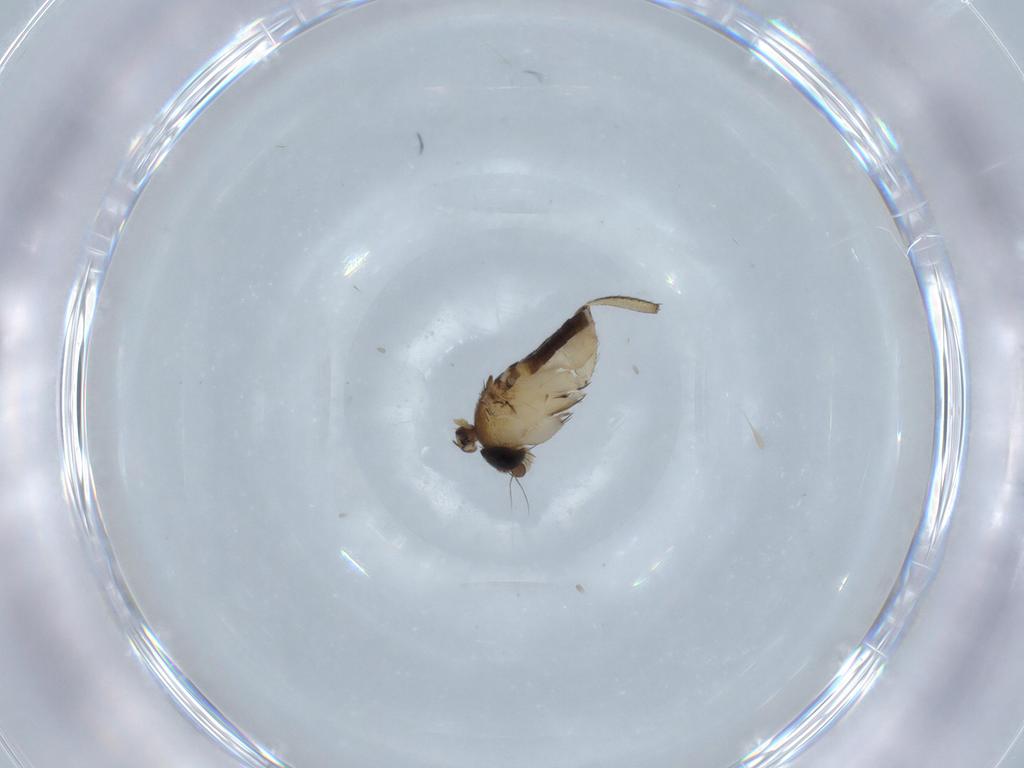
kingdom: Animalia
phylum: Arthropoda
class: Insecta
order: Diptera
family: Phoridae
